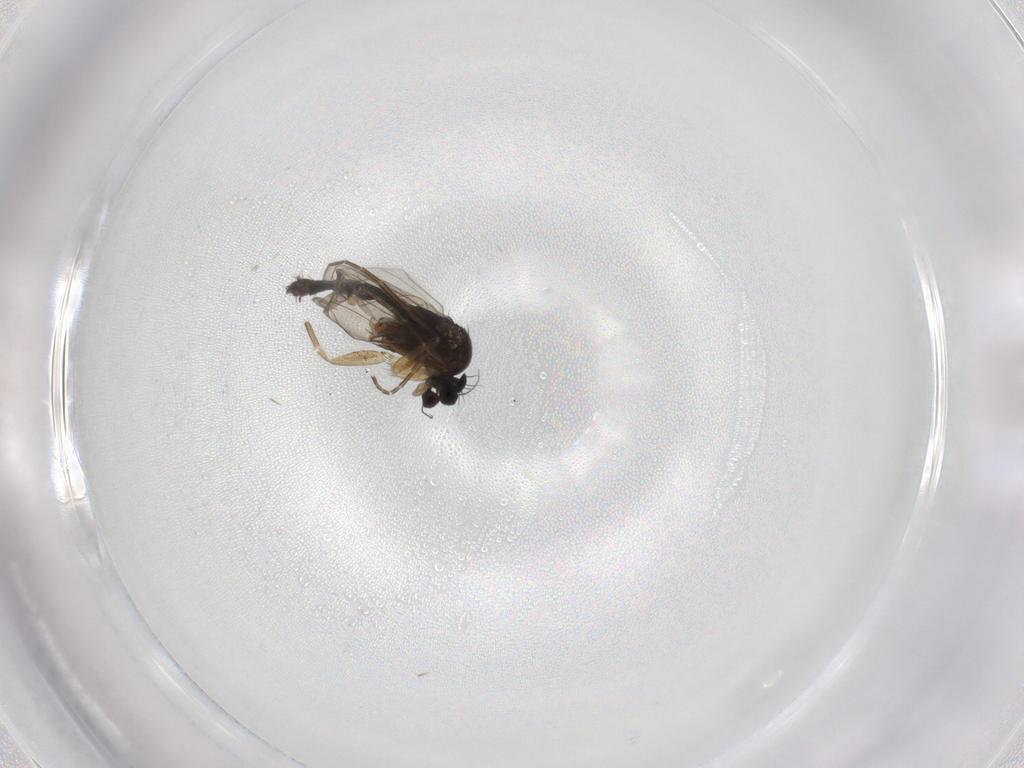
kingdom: Animalia
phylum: Arthropoda
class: Insecta
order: Diptera
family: Phoridae
